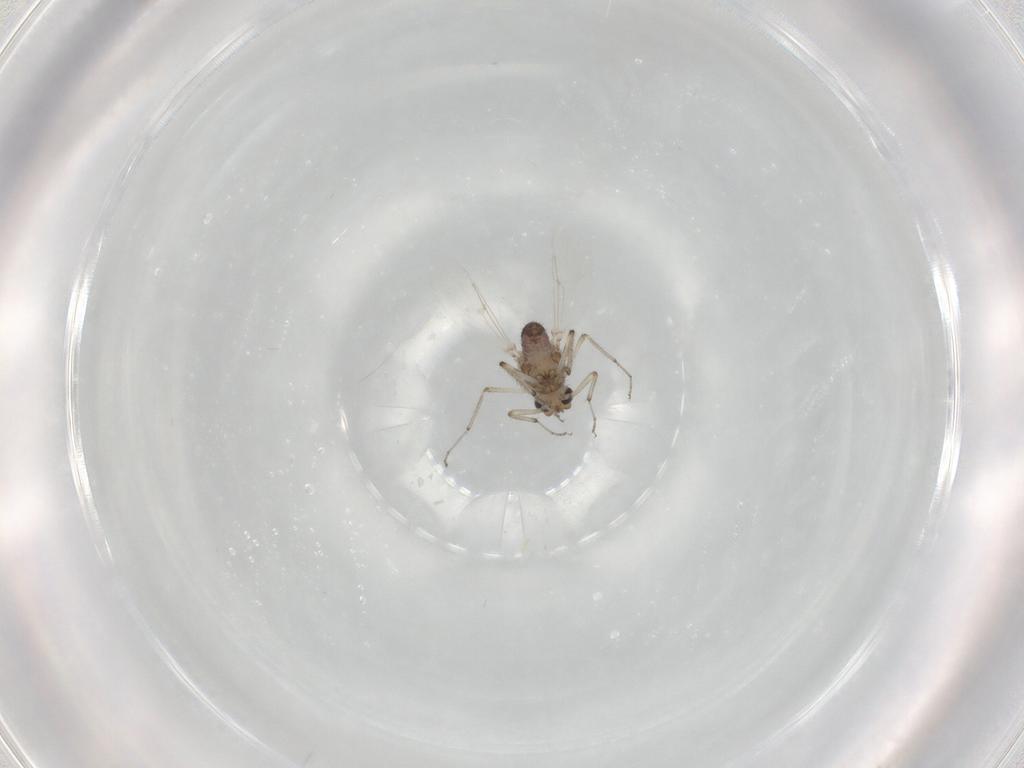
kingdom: Animalia
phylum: Arthropoda
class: Insecta
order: Diptera
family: Ceratopogonidae
